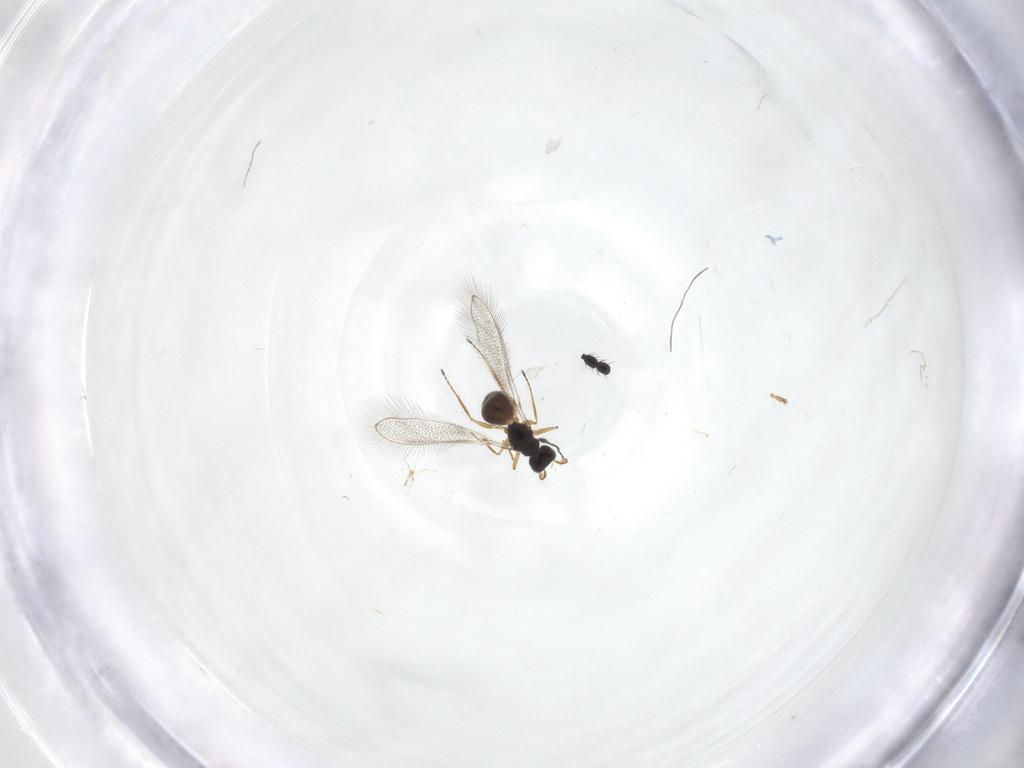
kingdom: Animalia
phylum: Arthropoda
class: Insecta
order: Hymenoptera
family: Mymaridae
